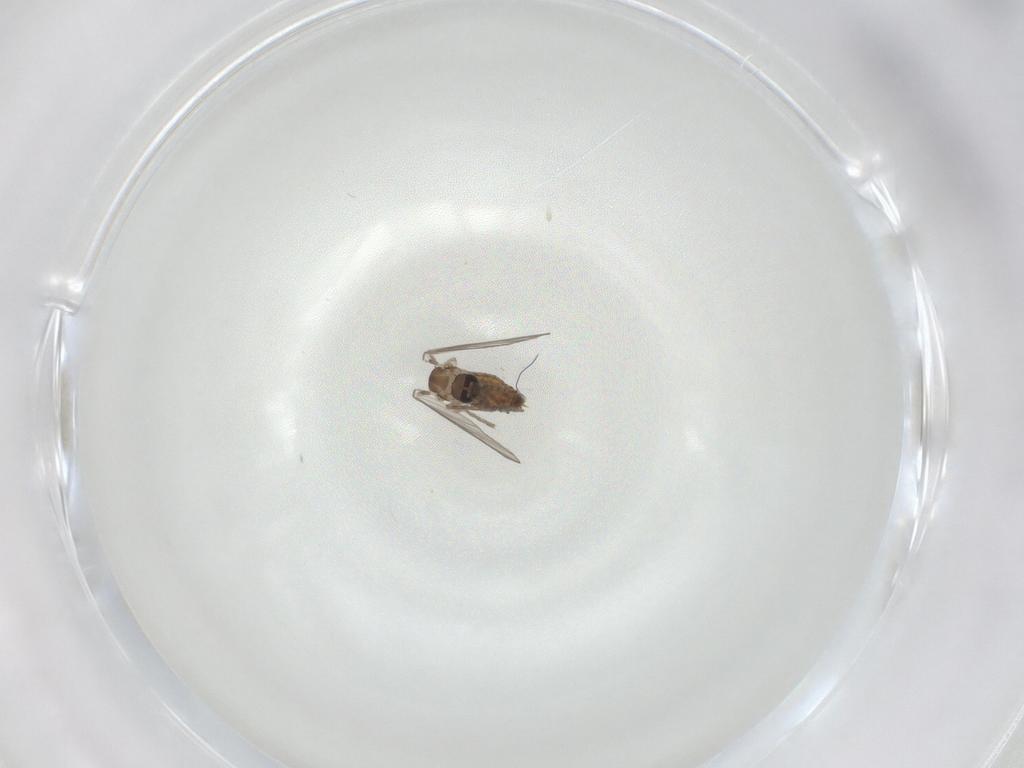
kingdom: Animalia
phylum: Arthropoda
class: Insecta
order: Diptera
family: Psychodidae
